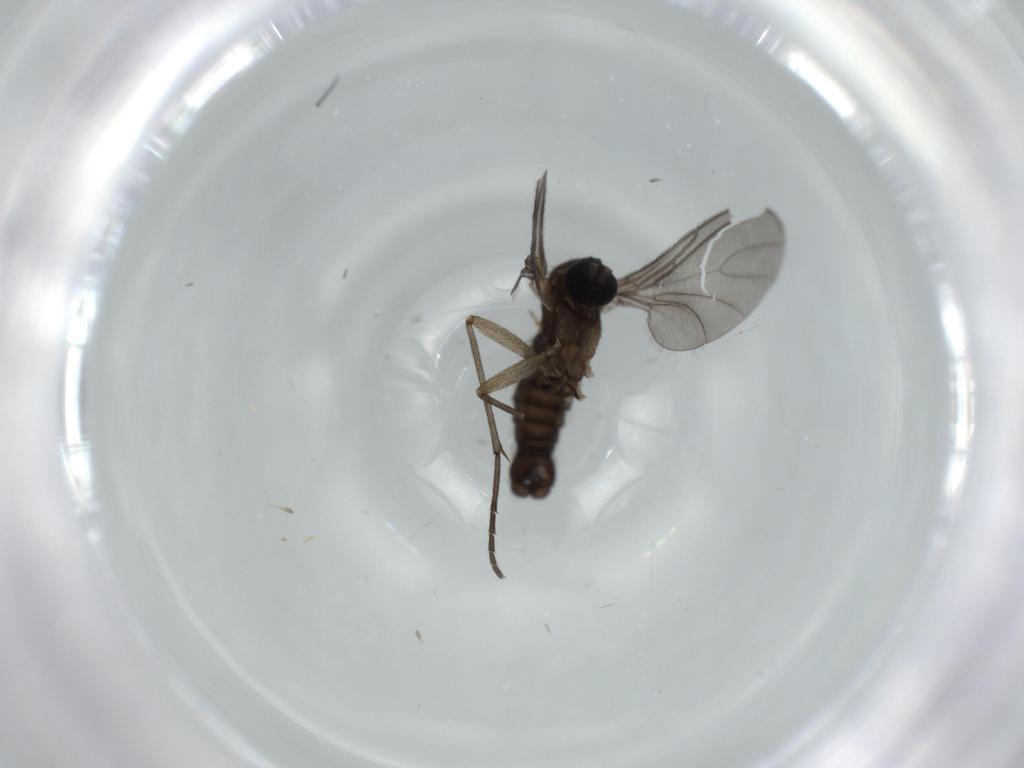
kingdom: Animalia
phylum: Arthropoda
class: Insecta
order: Diptera
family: Sciaridae
